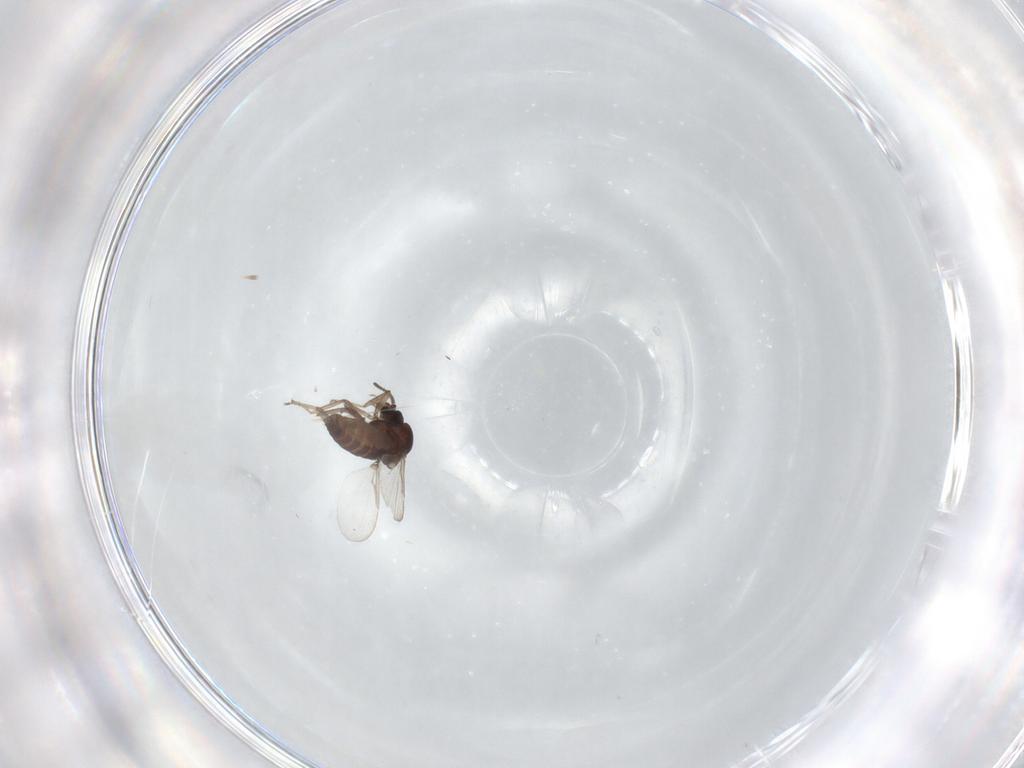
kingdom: Animalia
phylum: Arthropoda
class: Insecta
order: Diptera
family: Ceratopogonidae
